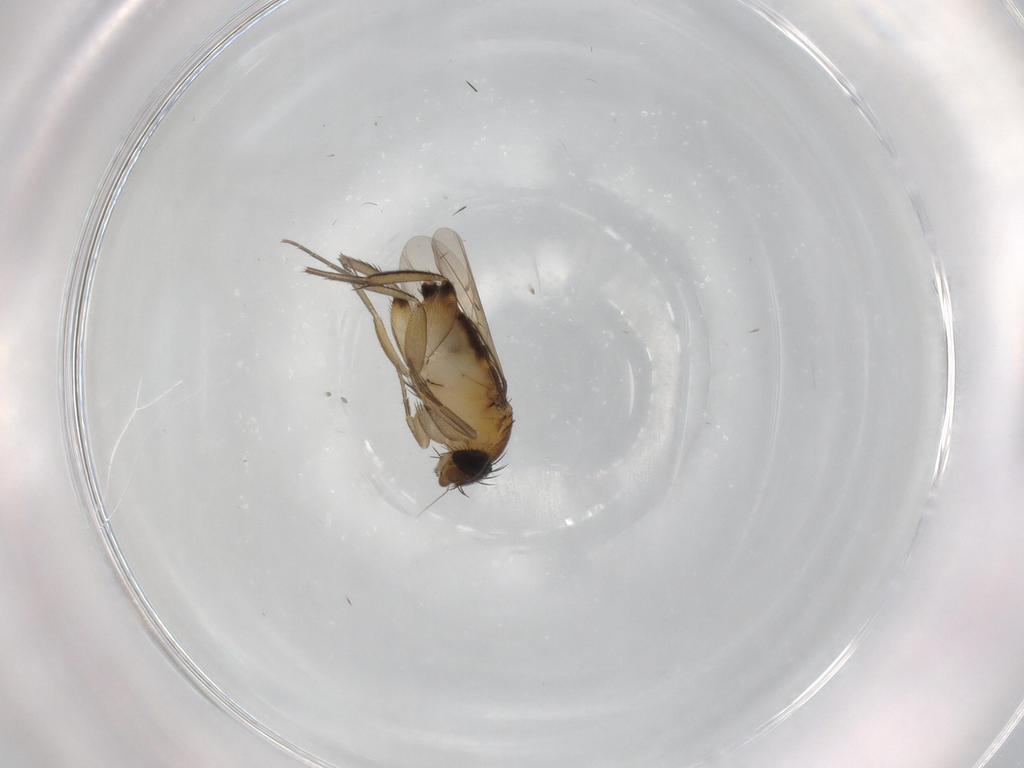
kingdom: Animalia
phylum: Arthropoda
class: Insecta
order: Diptera
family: Phoridae
